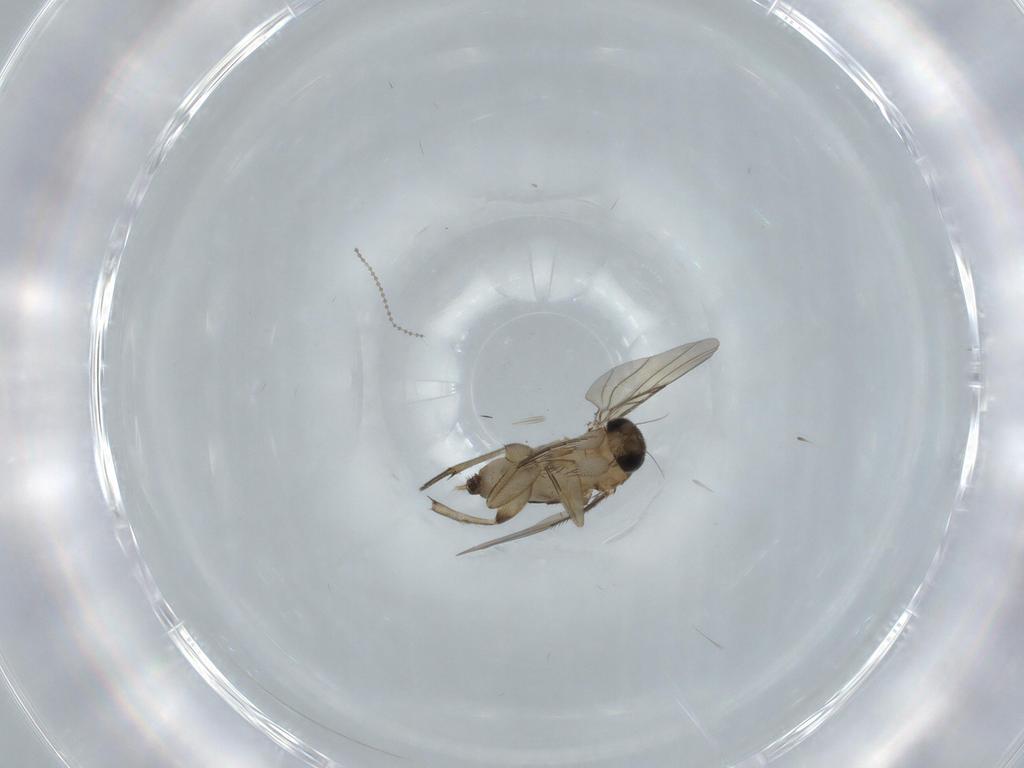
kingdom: Animalia
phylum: Arthropoda
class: Insecta
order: Diptera
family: Phoridae
